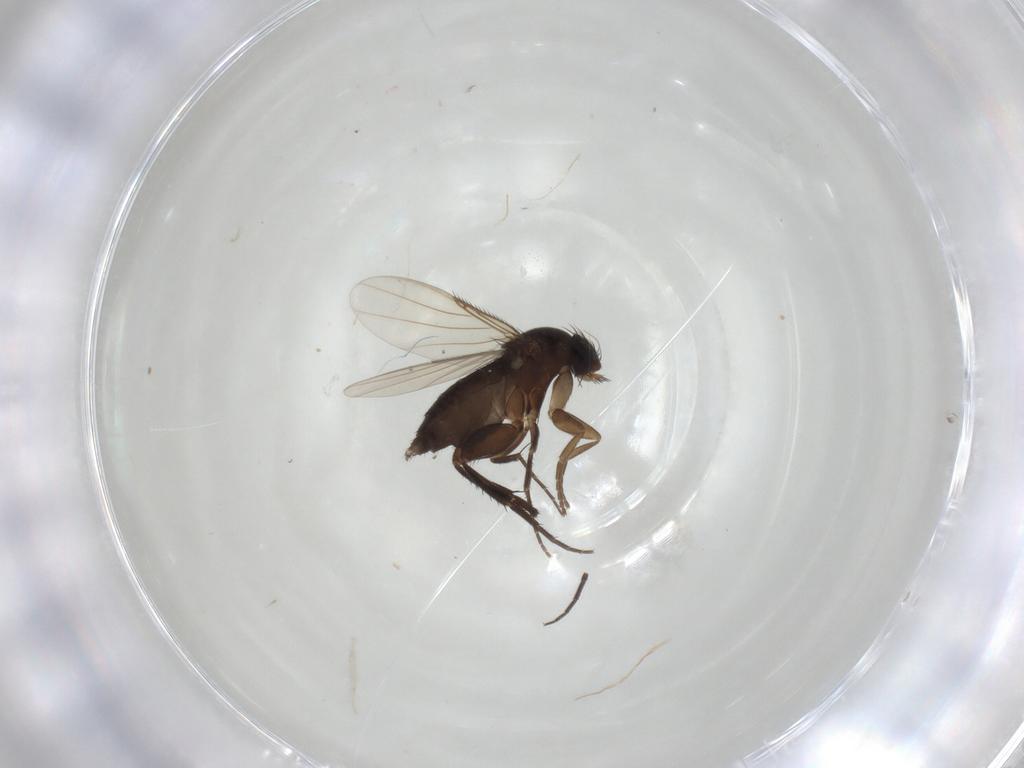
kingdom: Animalia
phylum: Arthropoda
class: Insecta
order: Diptera
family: Phoridae
